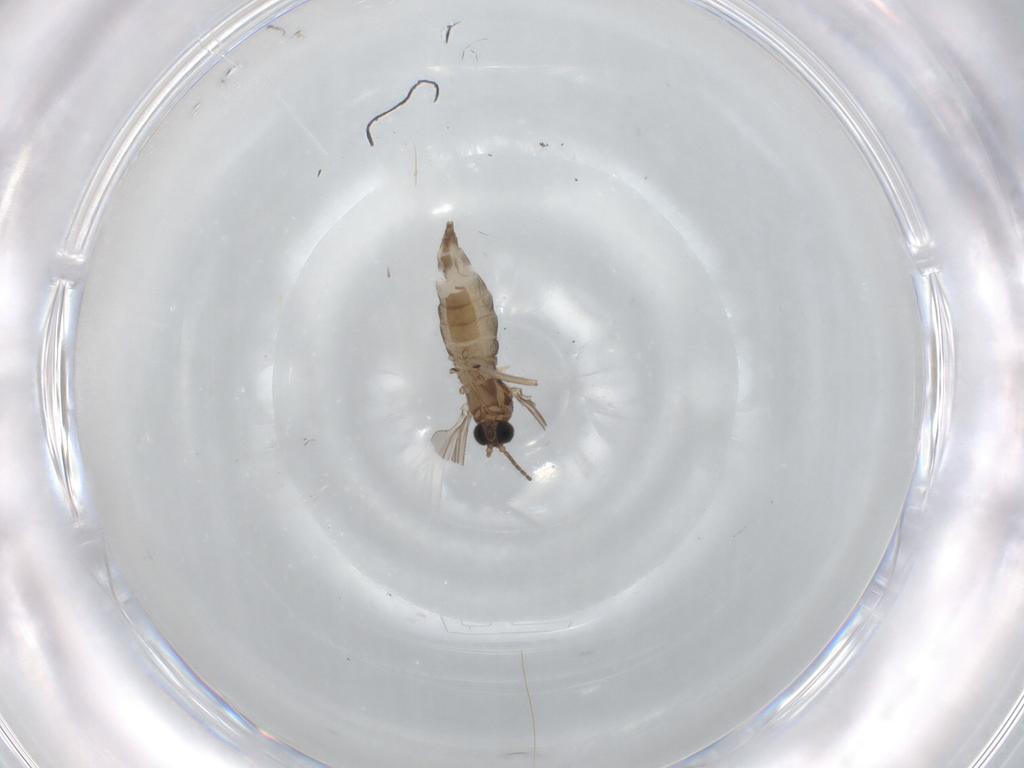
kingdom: Animalia
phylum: Arthropoda
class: Insecta
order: Diptera
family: Sciaridae
